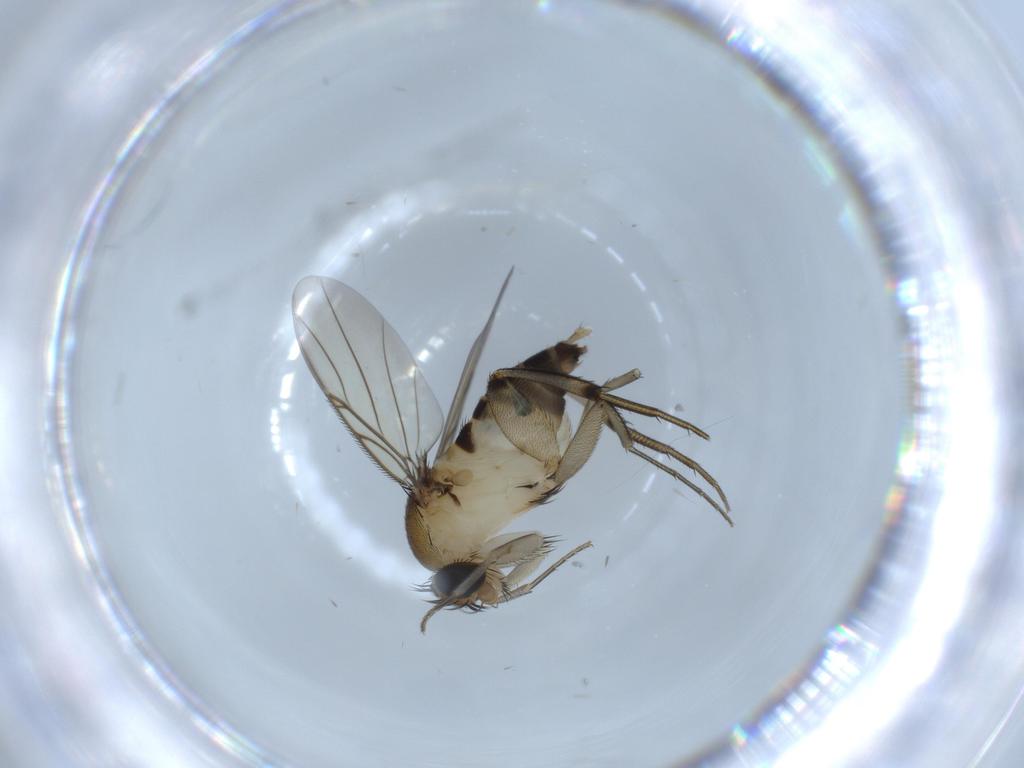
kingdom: Animalia
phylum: Arthropoda
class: Insecta
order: Diptera
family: Phoridae
